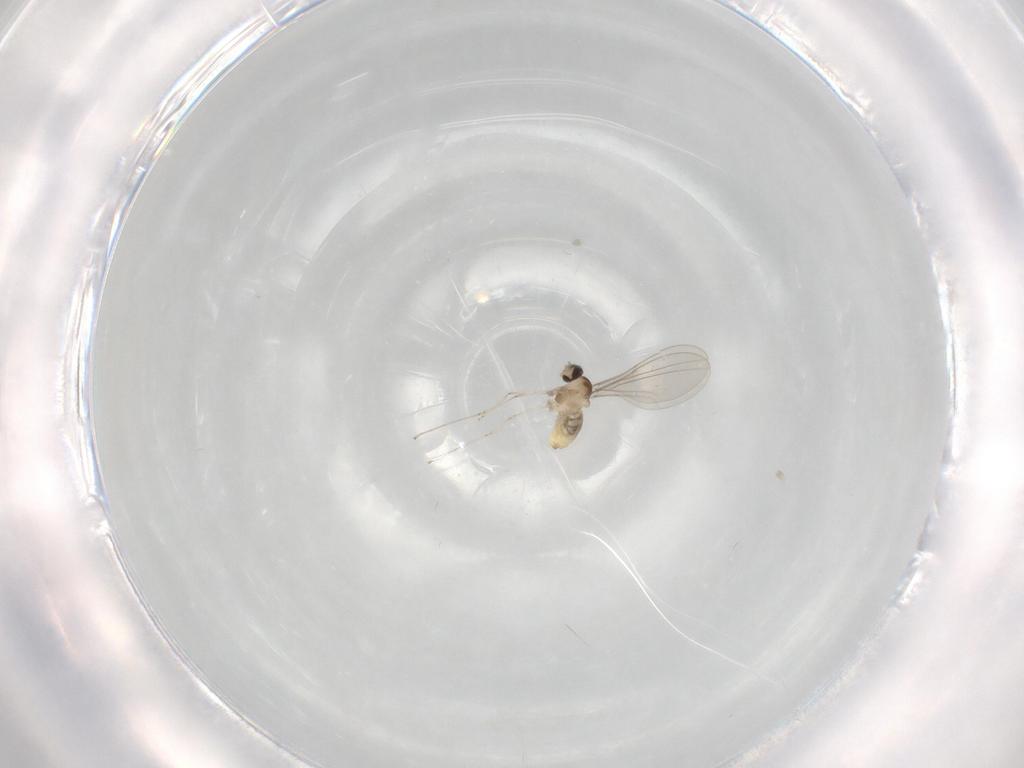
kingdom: Animalia
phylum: Arthropoda
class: Insecta
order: Diptera
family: Cecidomyiidae
